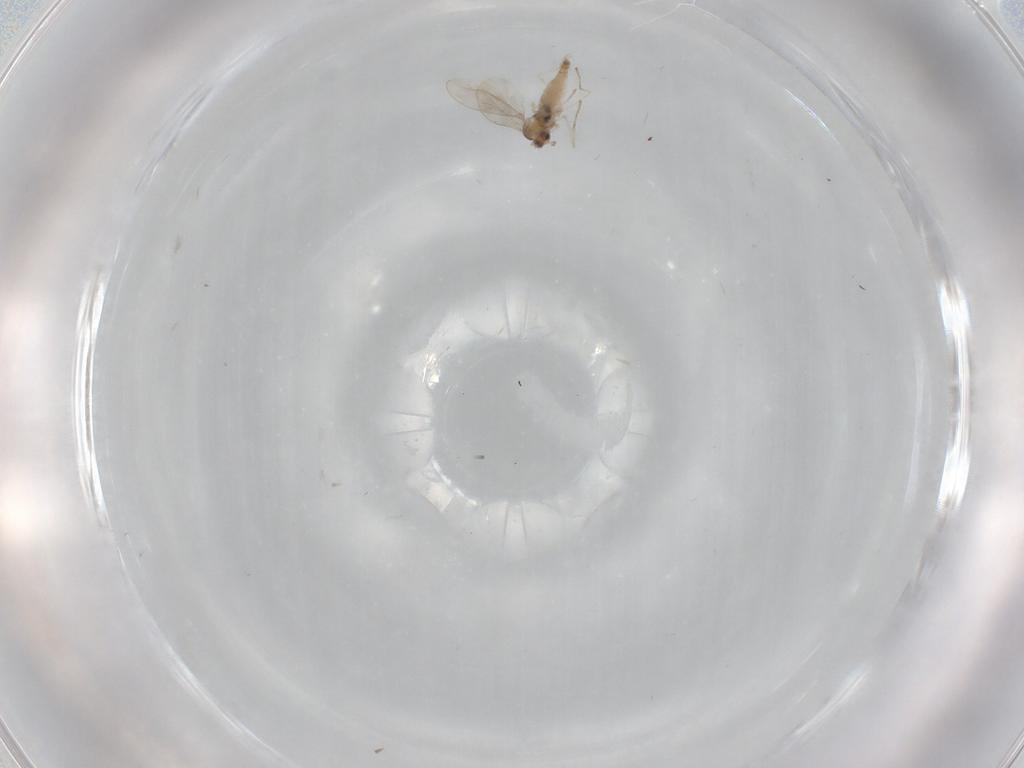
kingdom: Animalia
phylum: Arthropoda
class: Insecta
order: Diptera
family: Cecidomyiidae
